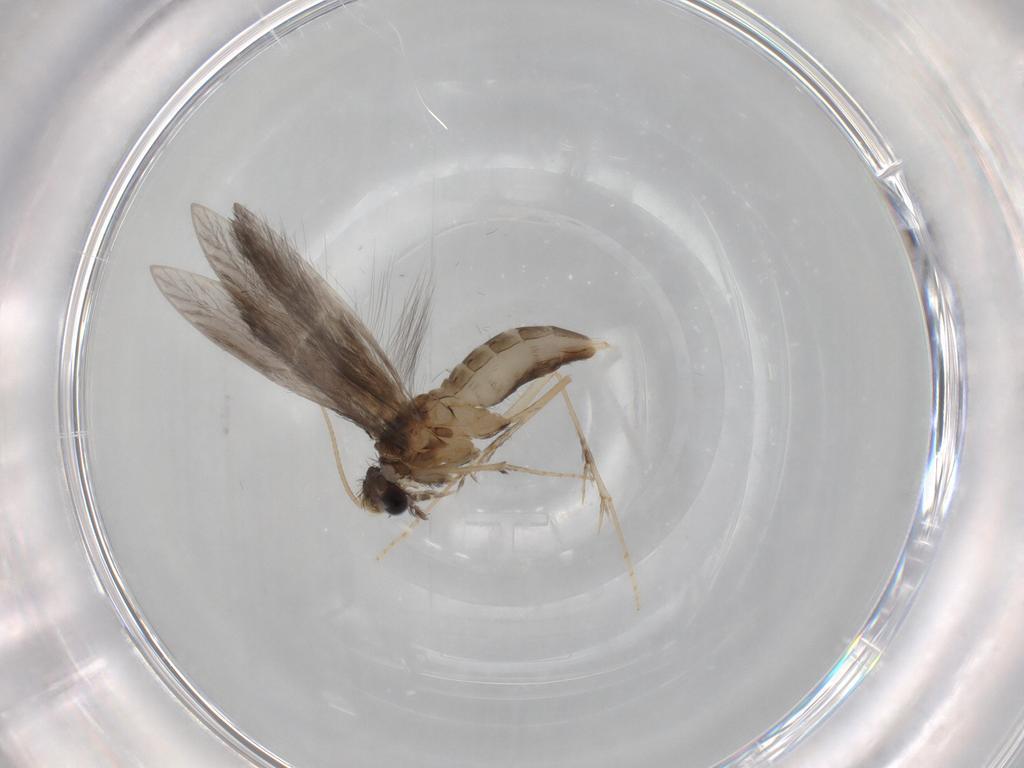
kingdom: Animalia
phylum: Arthropoda
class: Insecta
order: Trichoptera
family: Hydroptilidae
